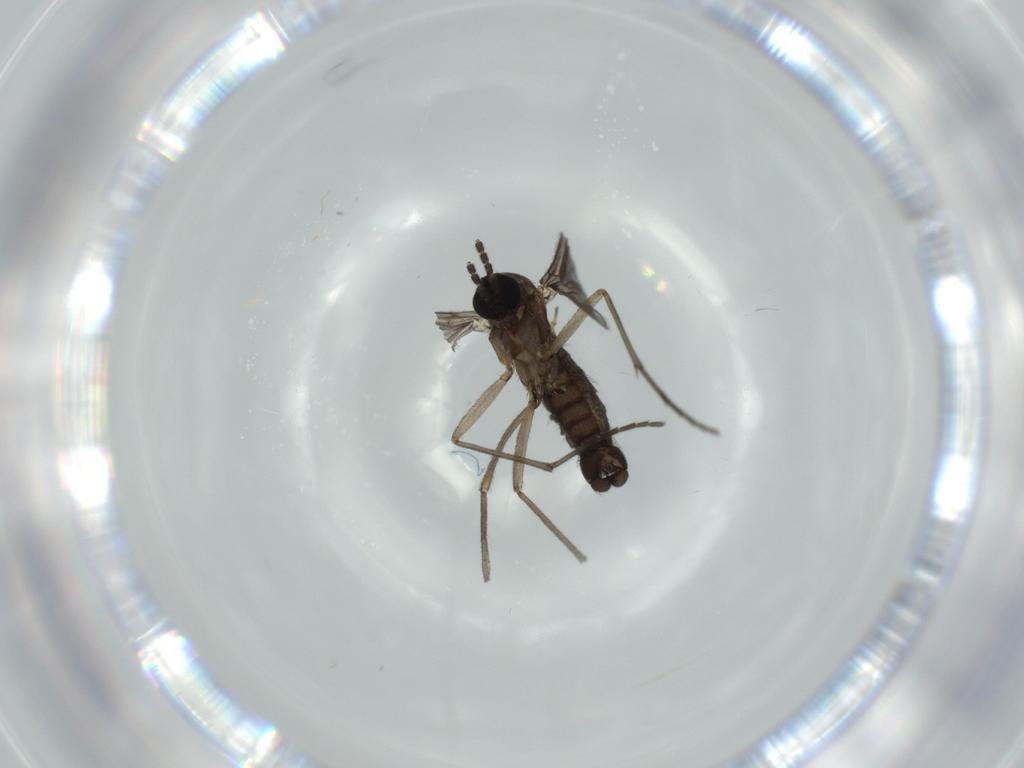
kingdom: Animalia
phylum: Arthropoda
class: Insecta
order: Diptera
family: Sciaridae
